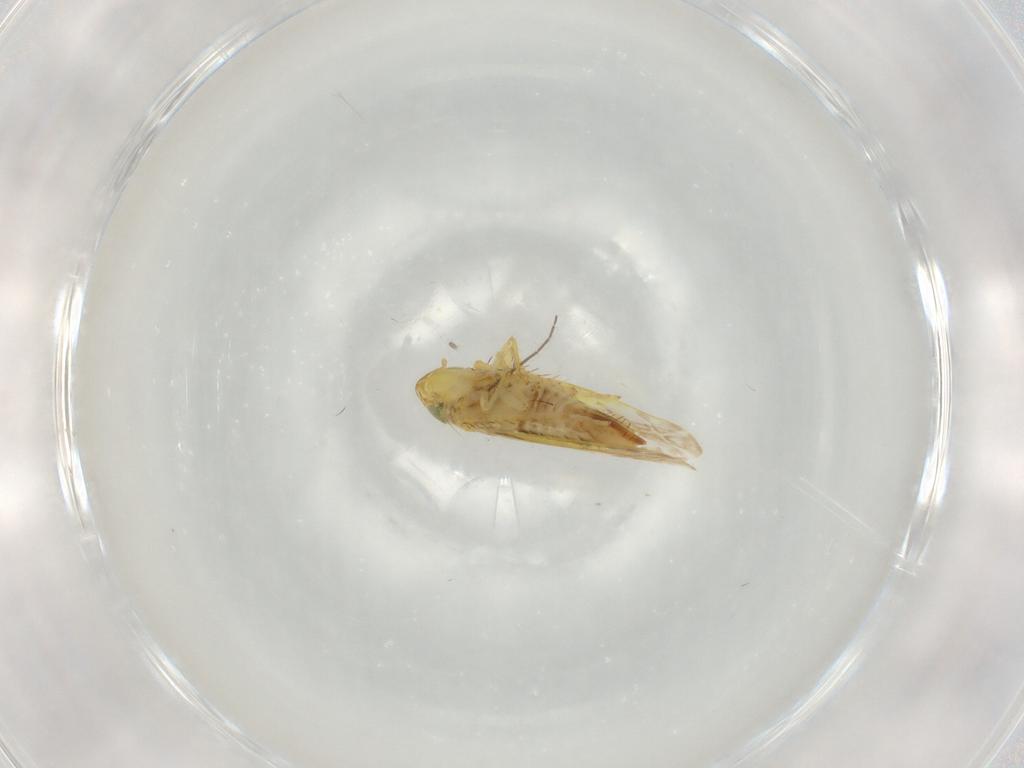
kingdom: Animalia
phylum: Arthropoda
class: Insecta
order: Hemiptera
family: Cicadellidae
